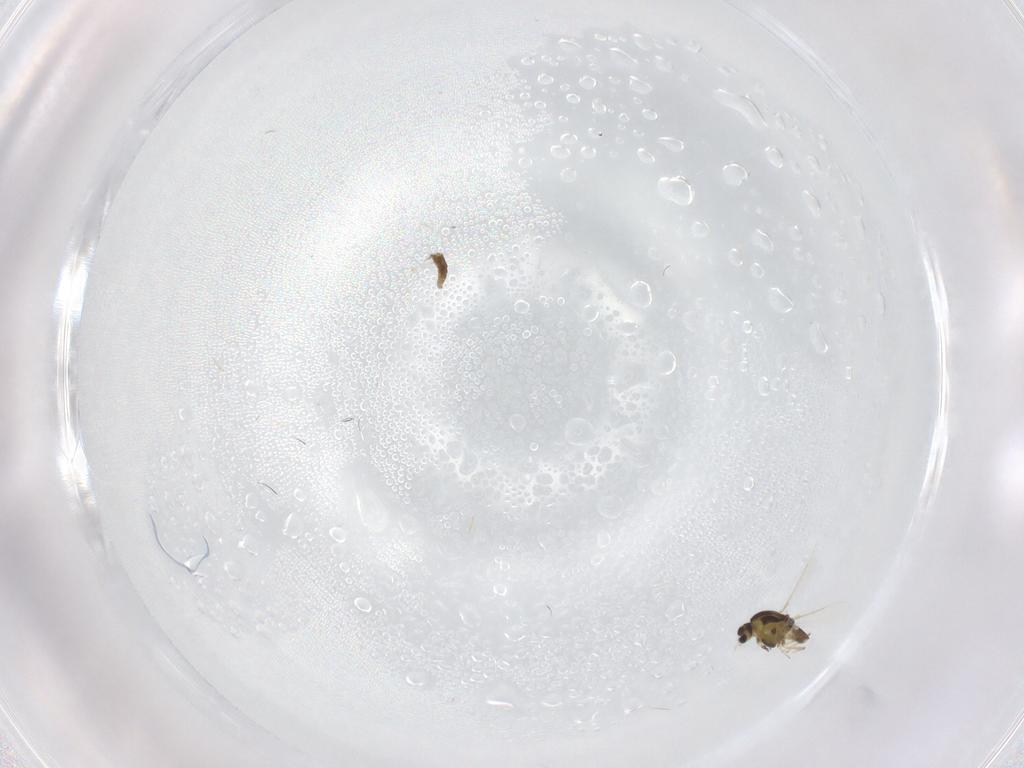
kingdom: Animalia
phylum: Arthropoda
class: Insecta
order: Diptera
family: Chironomidae
